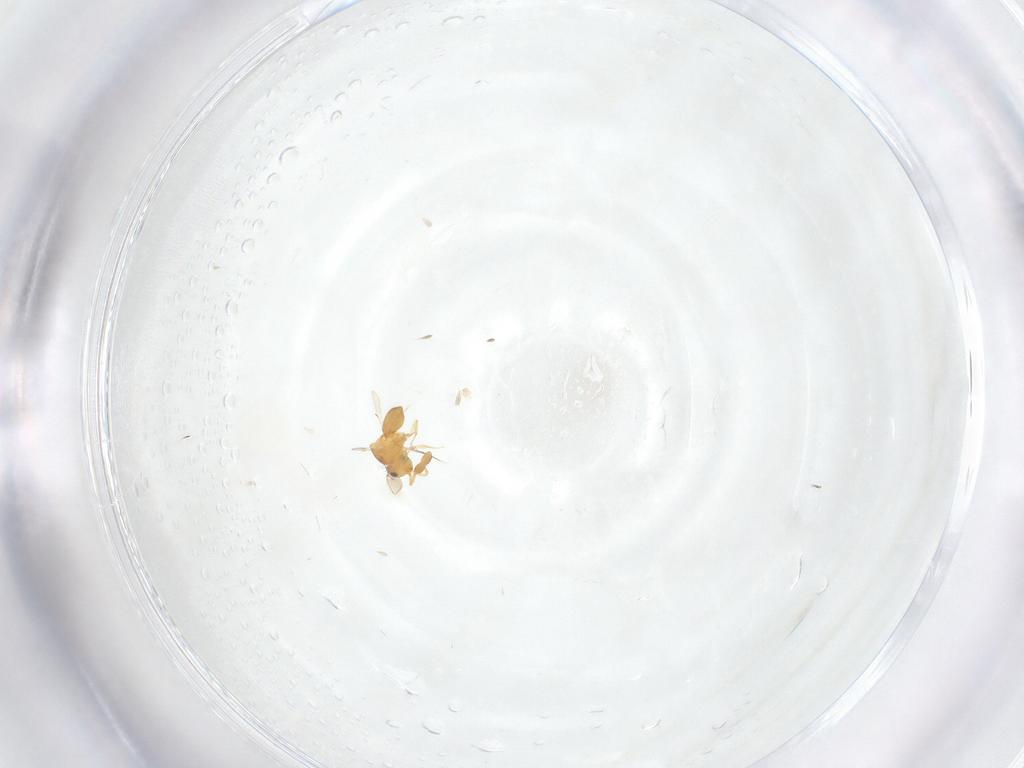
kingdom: Animalia
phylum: Arthropoda
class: Insecta
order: Hymenoptera
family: Scelionidae
